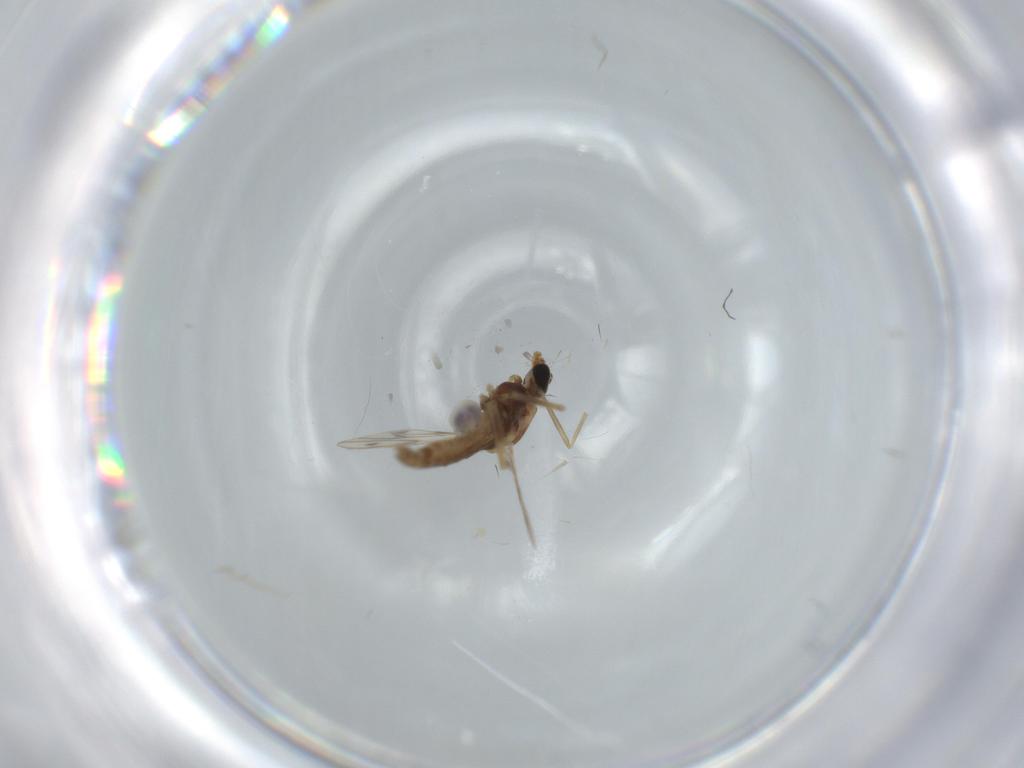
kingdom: Animalia
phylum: Arthropoda
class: Insecta
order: Diptera
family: Chironomidae
